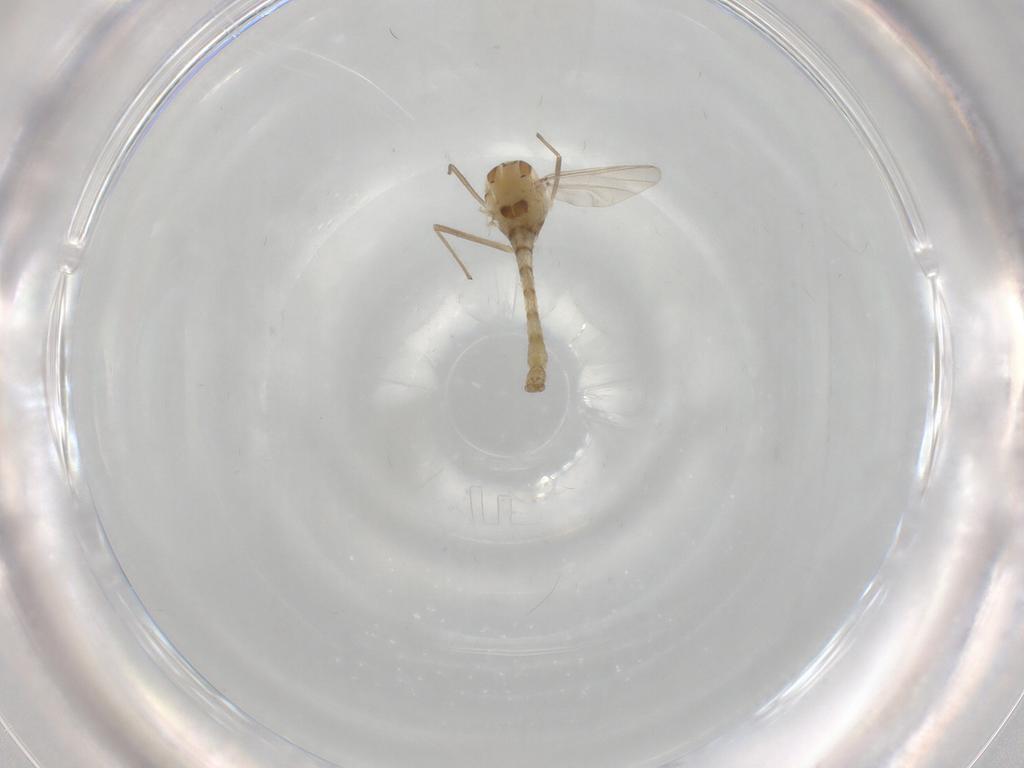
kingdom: Animalia
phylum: Arthropoda
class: Insecta
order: Diptera
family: Chironomidae
